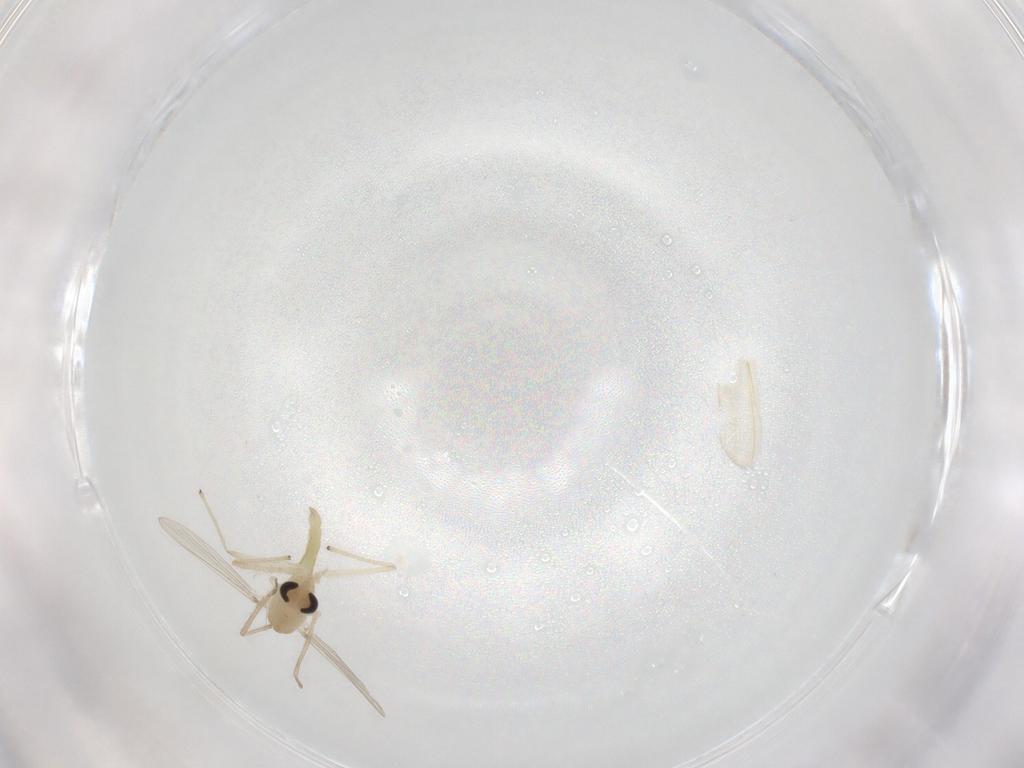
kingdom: Animalia
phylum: Arthropoda
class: Insecta
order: Diptera
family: Chironomidae
